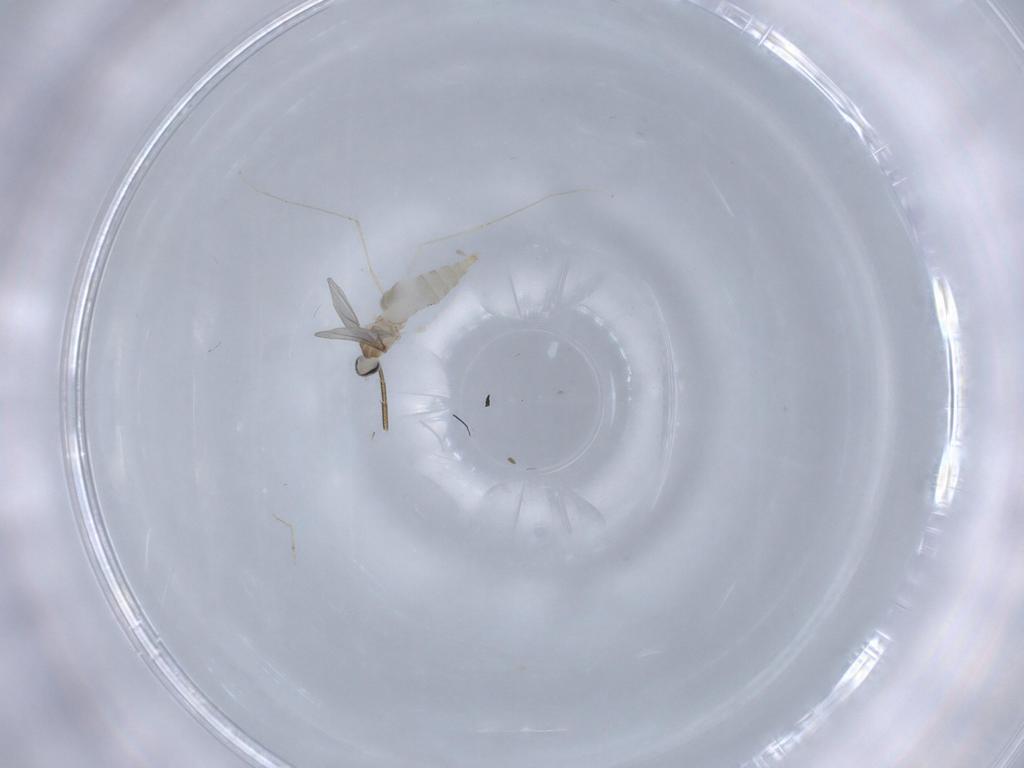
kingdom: Animalia
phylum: Arthropoda
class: Insecta
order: Diptera
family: Cecidomyiidae
